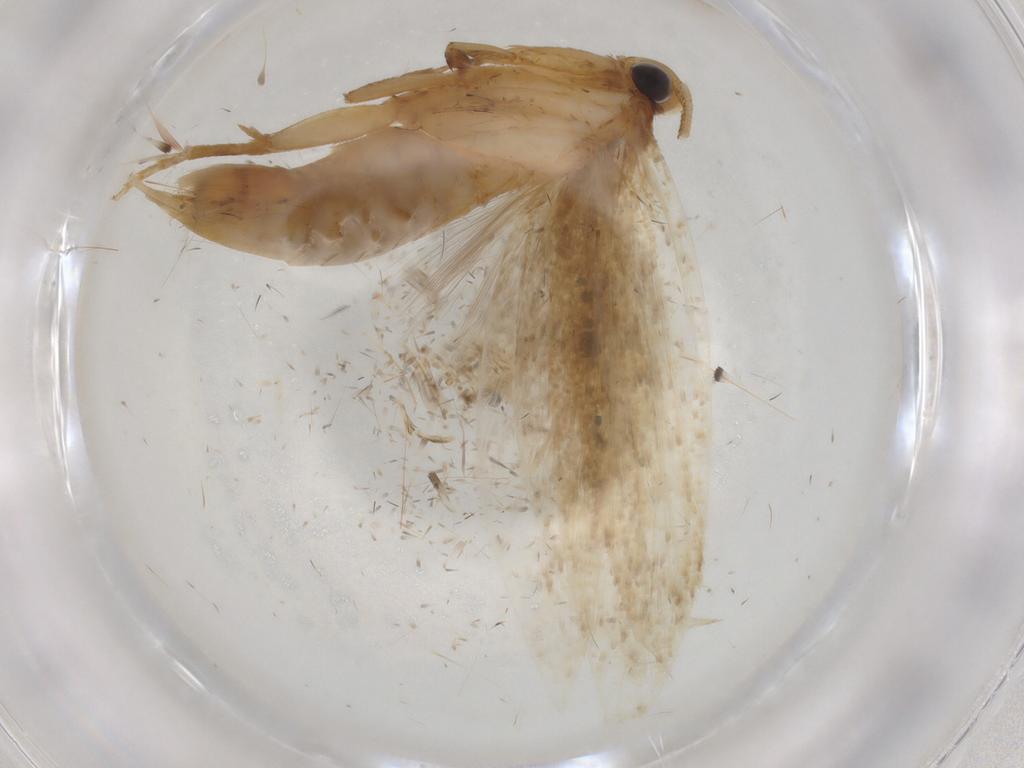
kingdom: Animalia
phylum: Arthropoda
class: Insecta
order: Lepidoptera
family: Tineidae
